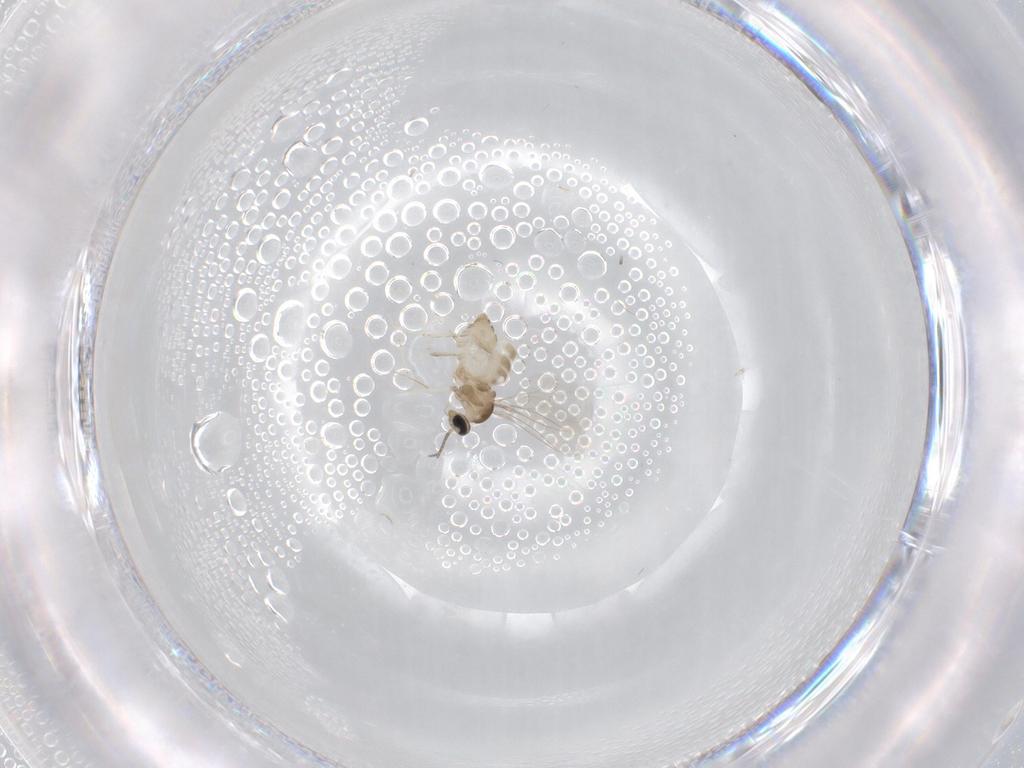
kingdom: Animalia
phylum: Arthropoda
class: Insecta
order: Diptera
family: Cecidomyiidae
